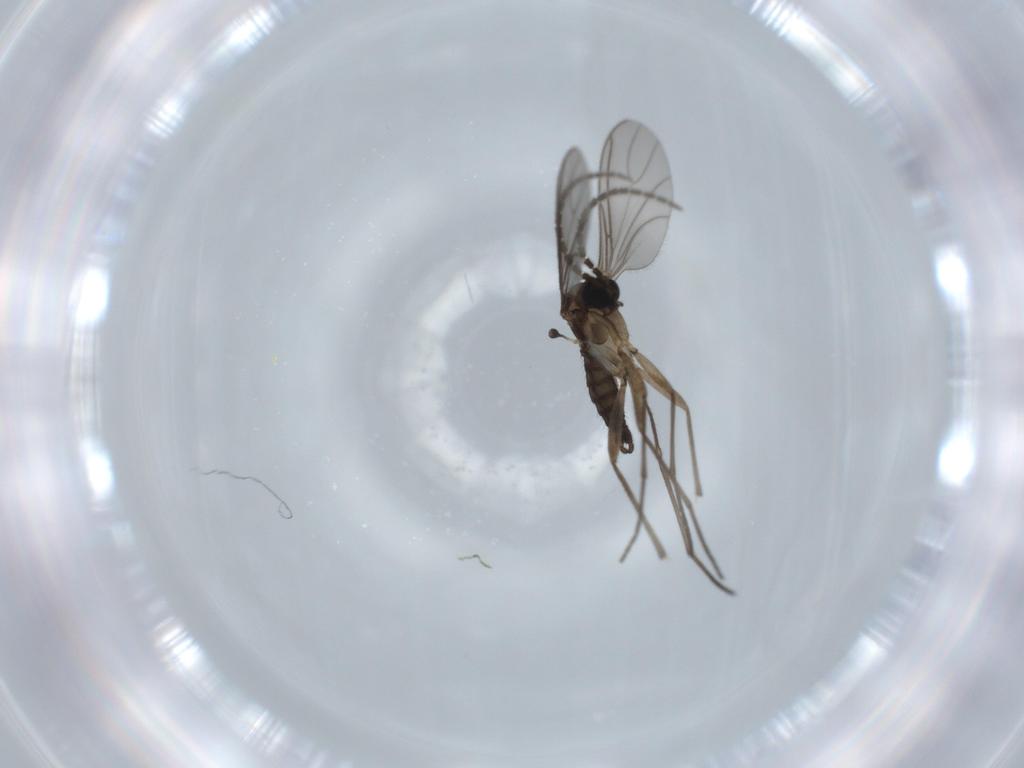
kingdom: Animalia
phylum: Arthropoda
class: Insecta
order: Diptera
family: Sciaridae
